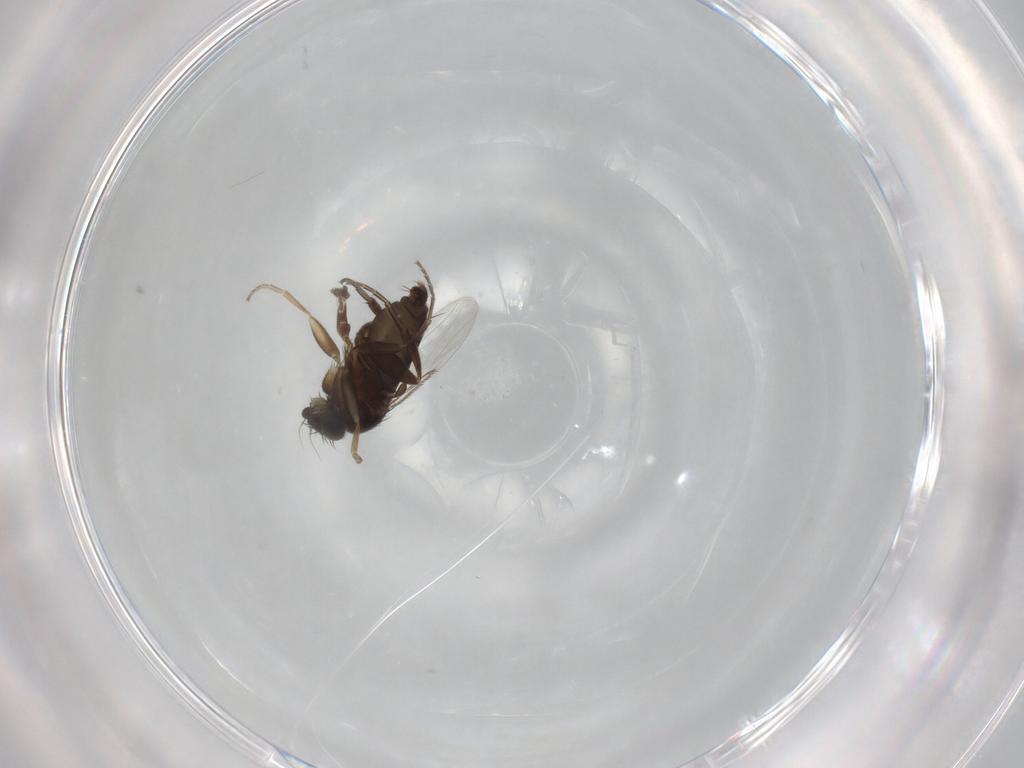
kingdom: Animalia
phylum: Arthropoda
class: Insecta
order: Diptera
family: Phoridae
